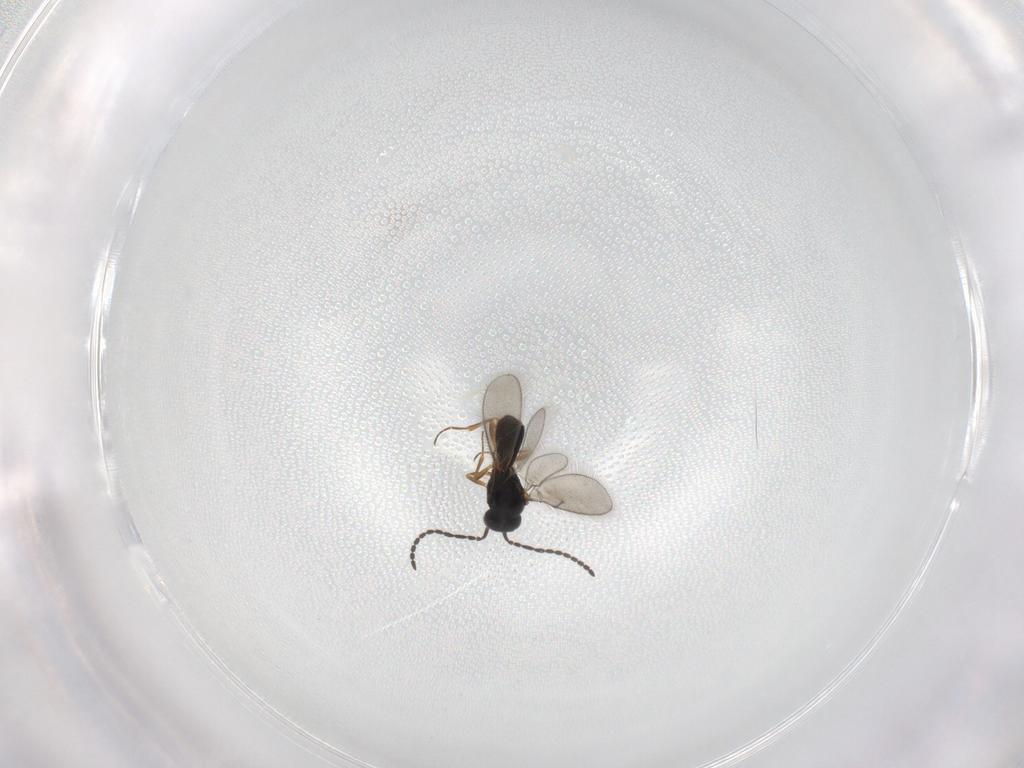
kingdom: Animalia
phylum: Arthropoda
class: Insecta
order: Hymenoptera
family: Scelionidae
